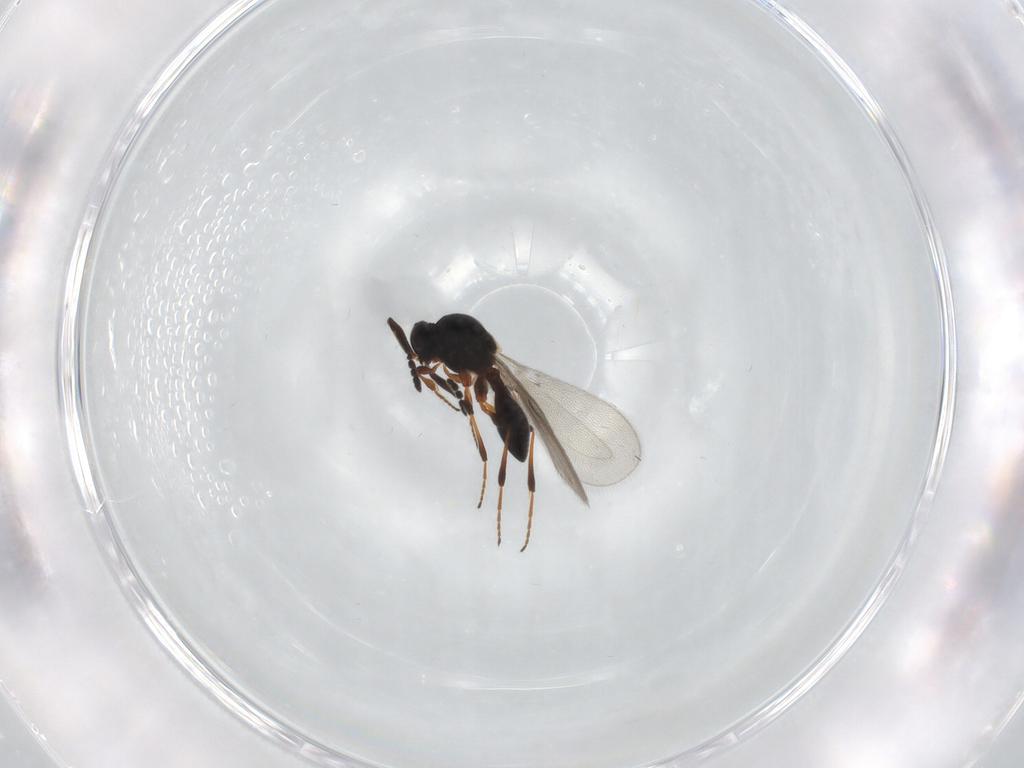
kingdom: Animalia
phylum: Arthropoda
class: Insecta
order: Hymenoptera
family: Platygastridae
